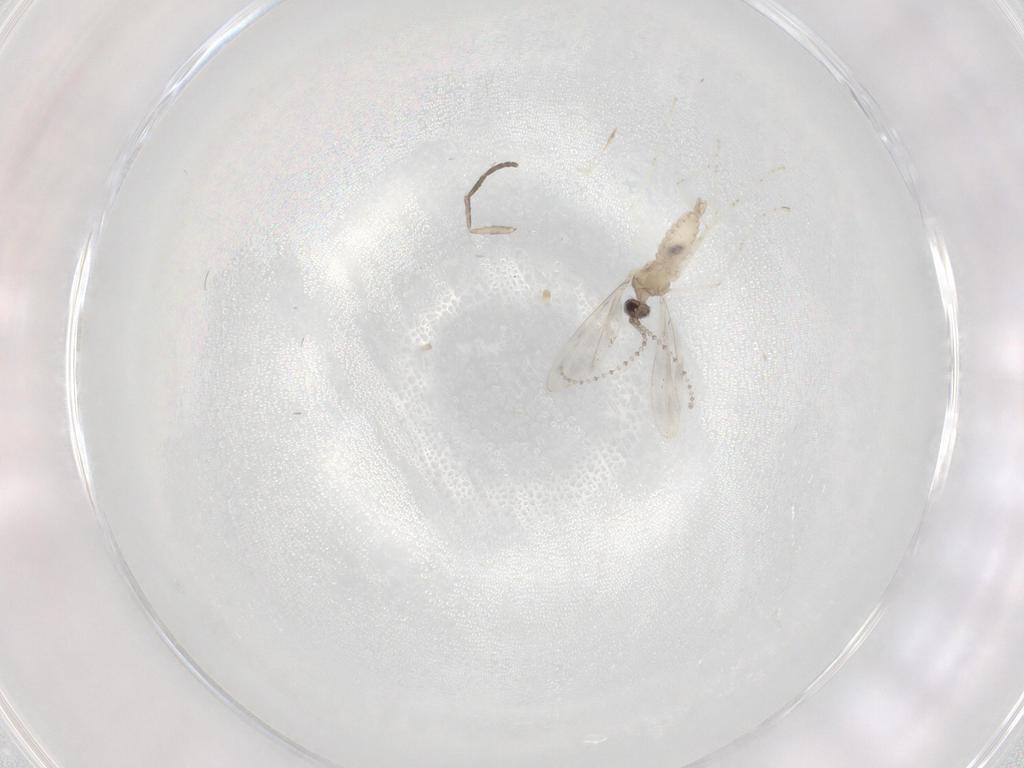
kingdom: Animalia
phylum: Arthropoda
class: Insecta
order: Diptera
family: Cecidomyiidae
